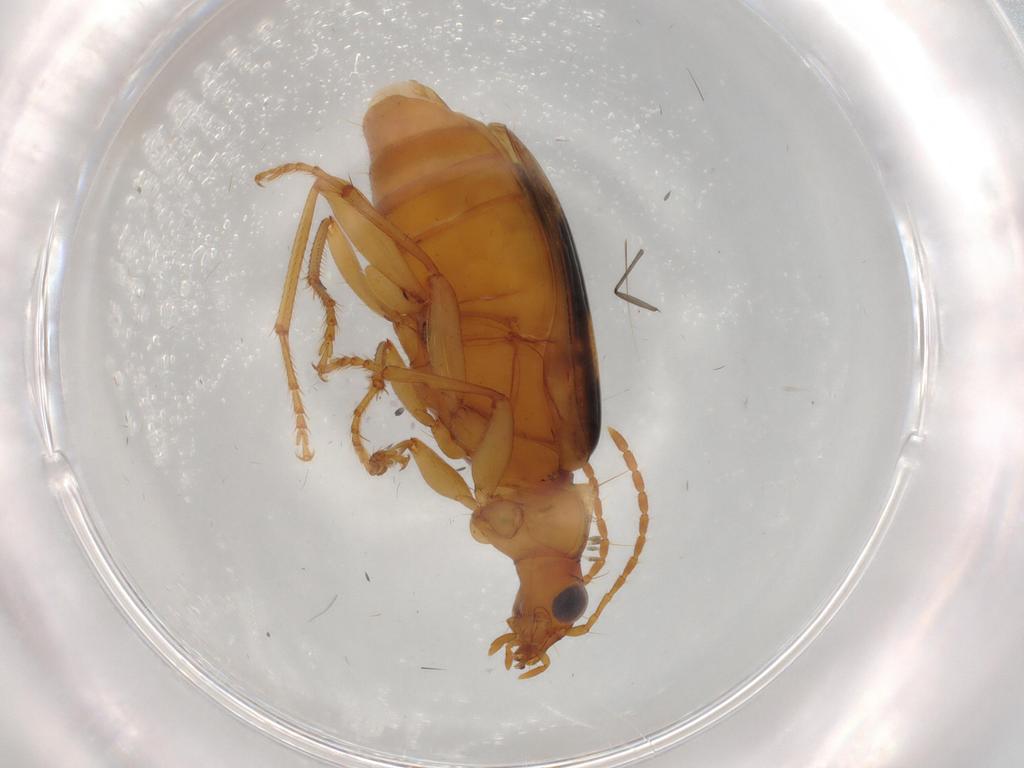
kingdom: Animalia
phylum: Arthropoda
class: Insecta
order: Coleoptera
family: Carabidae
